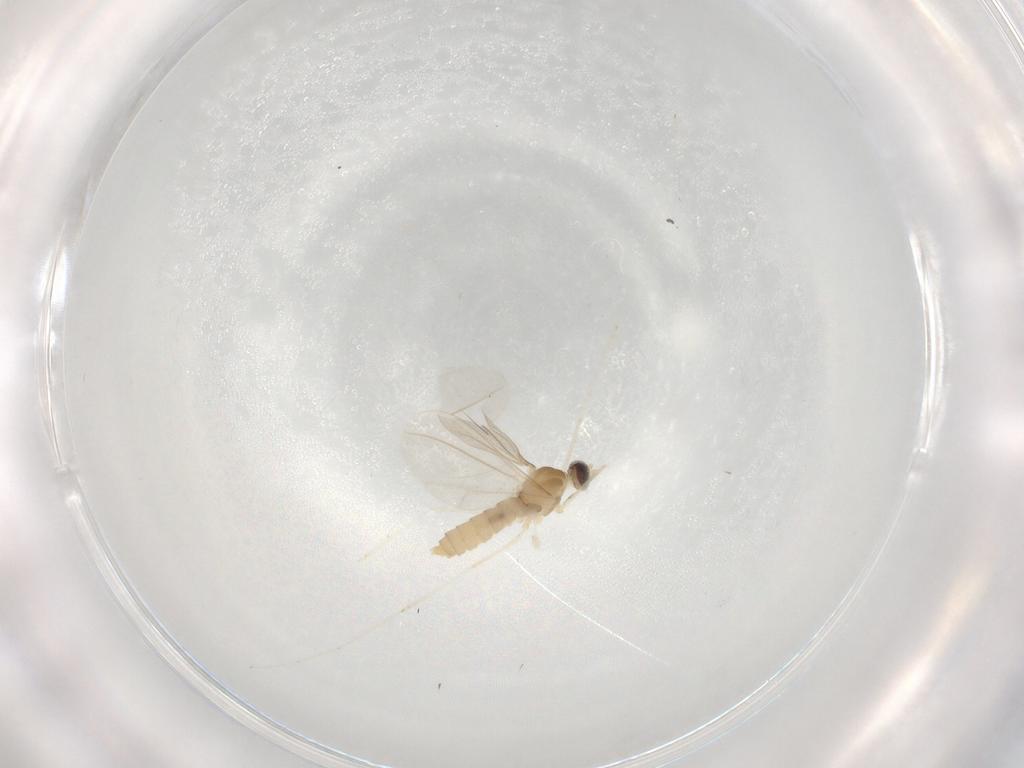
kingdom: Animalia
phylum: Arthropoda
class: Insecta
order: Diptera
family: Cecidomyiidae
